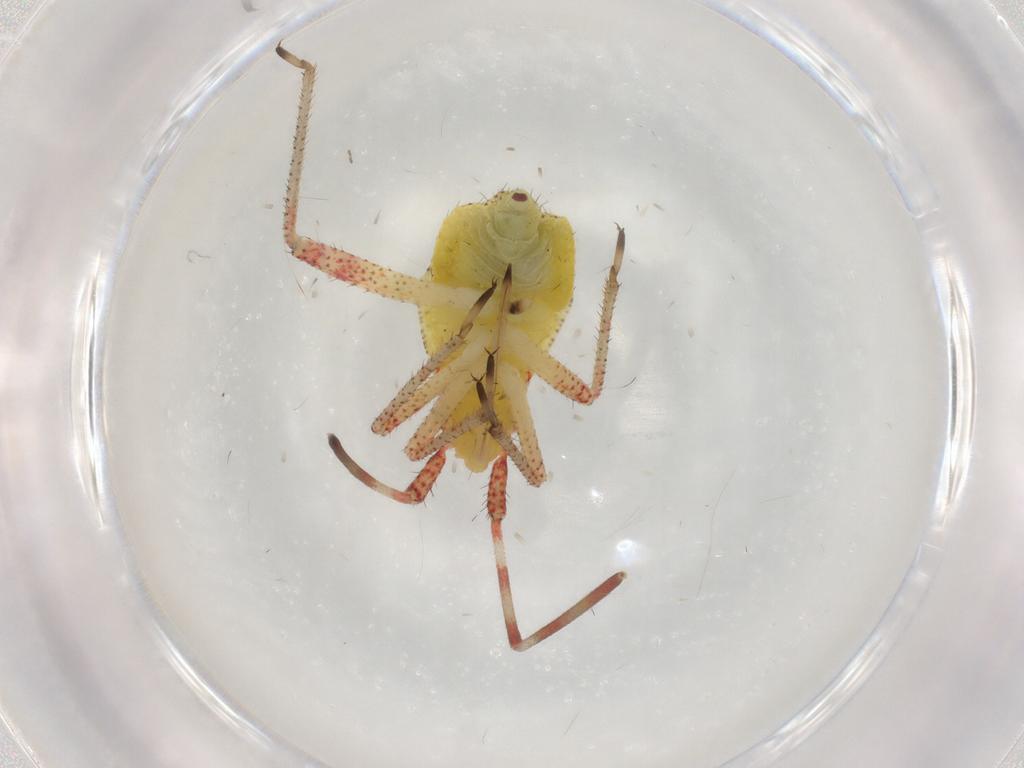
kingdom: Animalia
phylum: Arthropoda
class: Insecta
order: Hemiptera
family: Miridae
